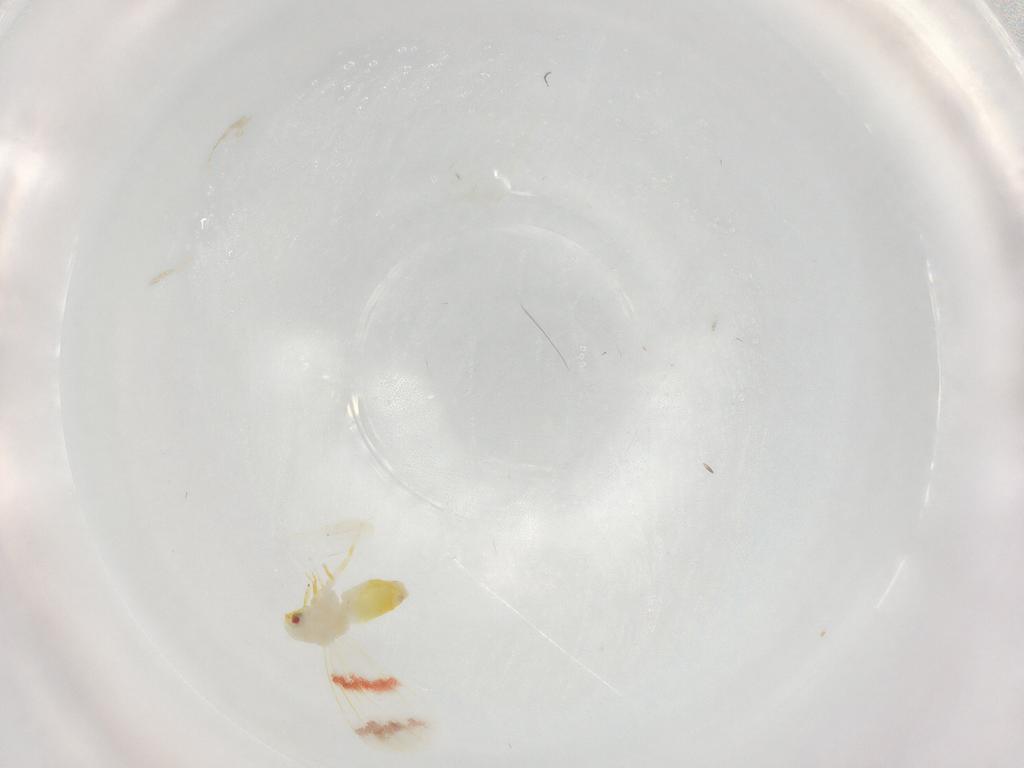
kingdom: Animalia
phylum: Arthropoda
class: Insecta
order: Hemiptera
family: Aleyrodidae
